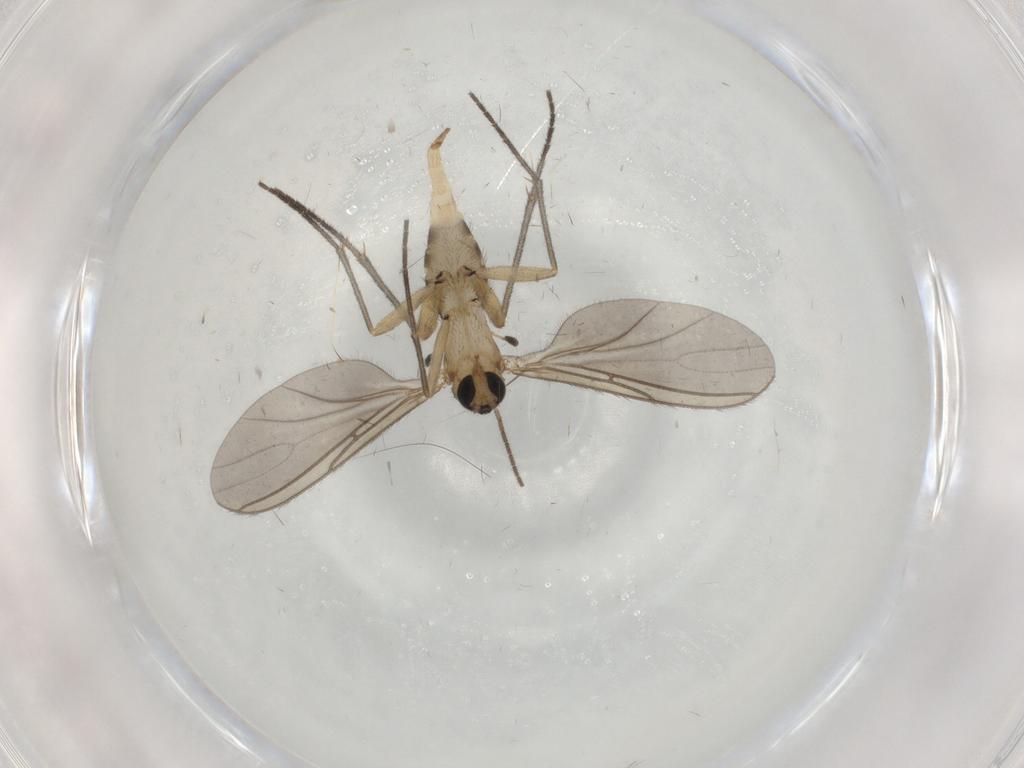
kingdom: Animalia
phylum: Arthropoda
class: Insecta
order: Diptera
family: Sciaridae
